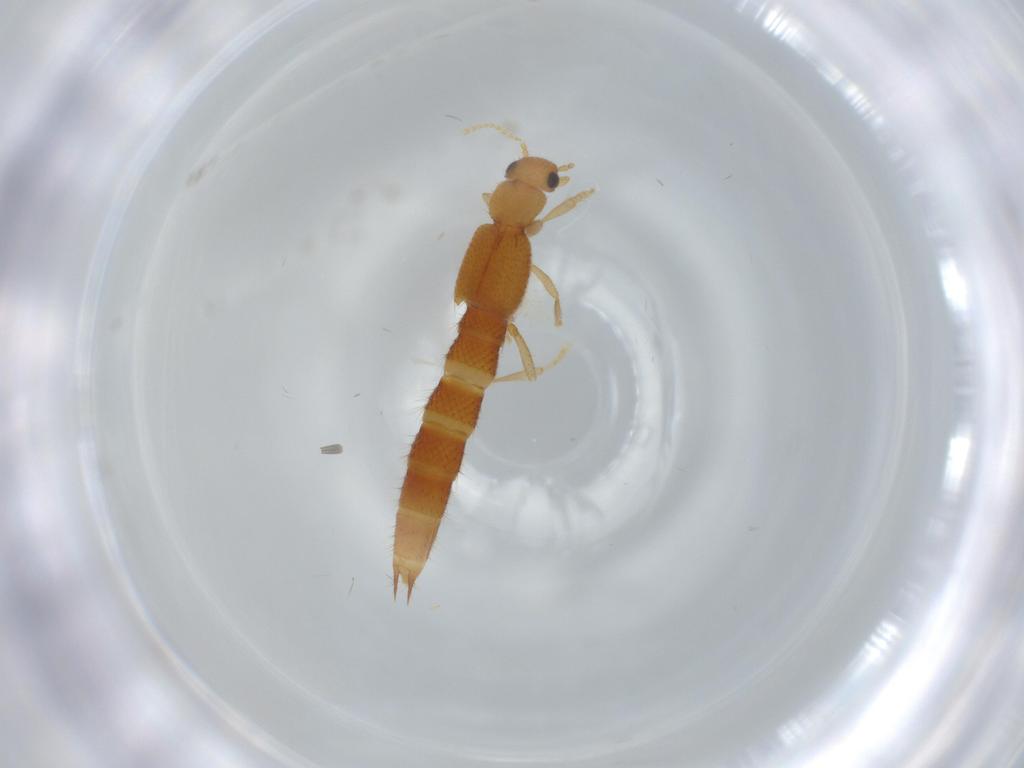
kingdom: Animalia
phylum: Arthropoda
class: Insecta
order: Coleoptera
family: Staphylinidae
